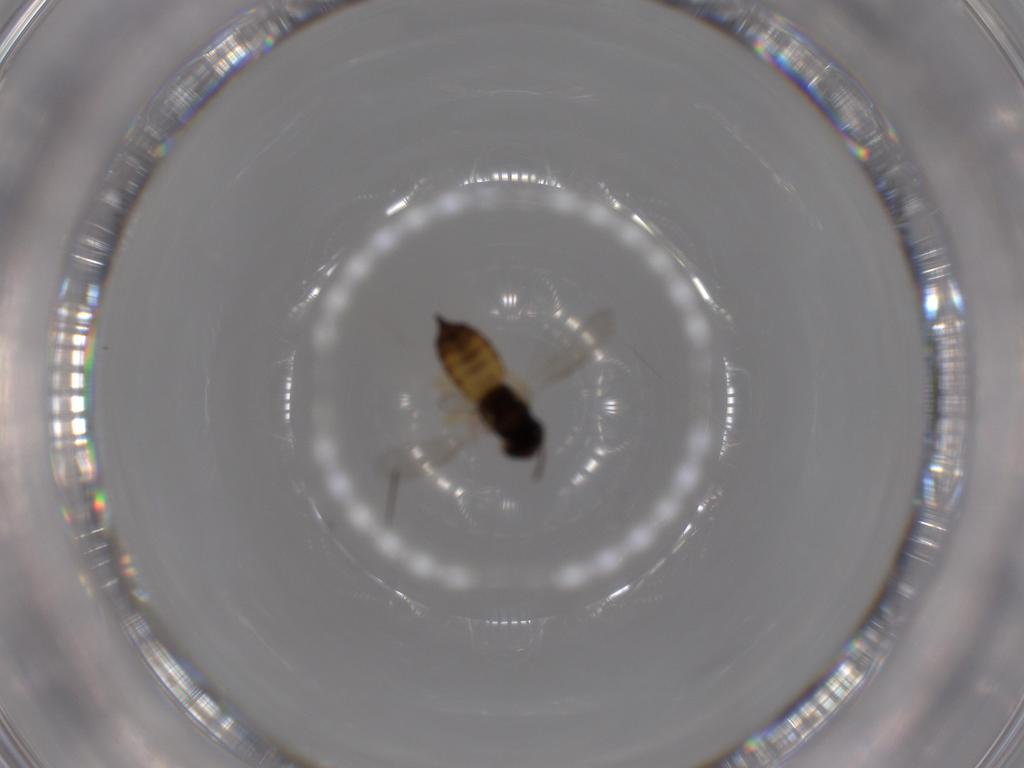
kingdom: Animalia
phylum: Arthropoda
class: Insecta
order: Hymenoptera
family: Eulophidae
